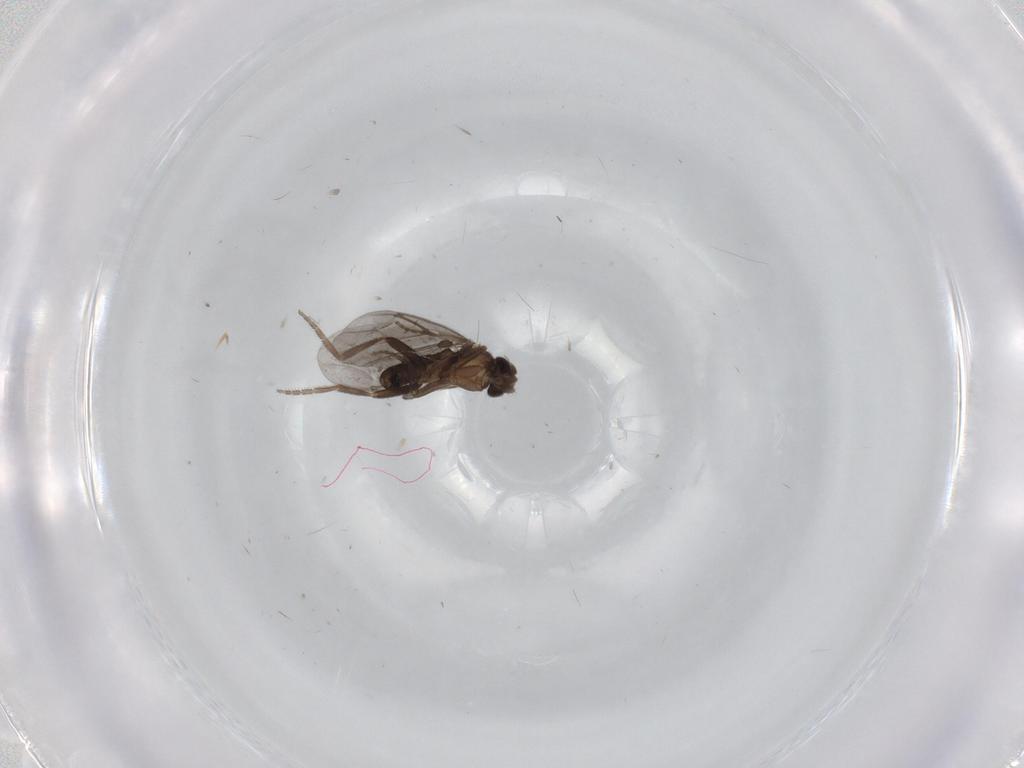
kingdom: Animalia
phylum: Arthropoda
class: Insecta
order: Diptera
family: Phoridae
